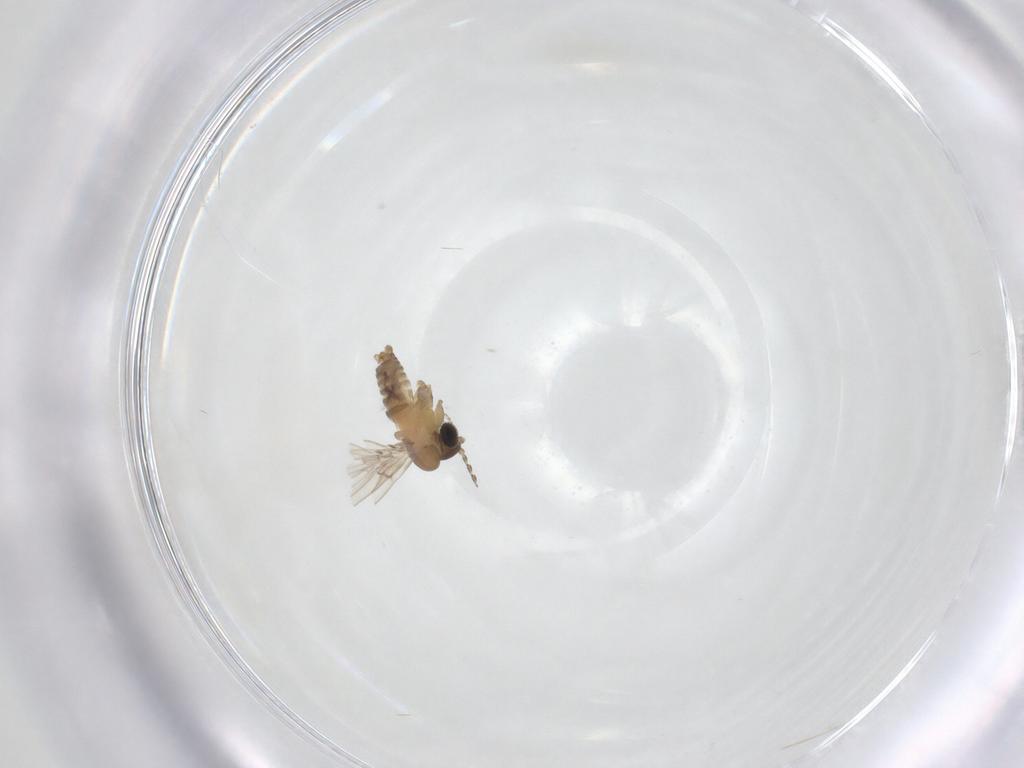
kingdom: Animalia
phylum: Arthropoda
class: Insecta
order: Diptera
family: Psychodidae
